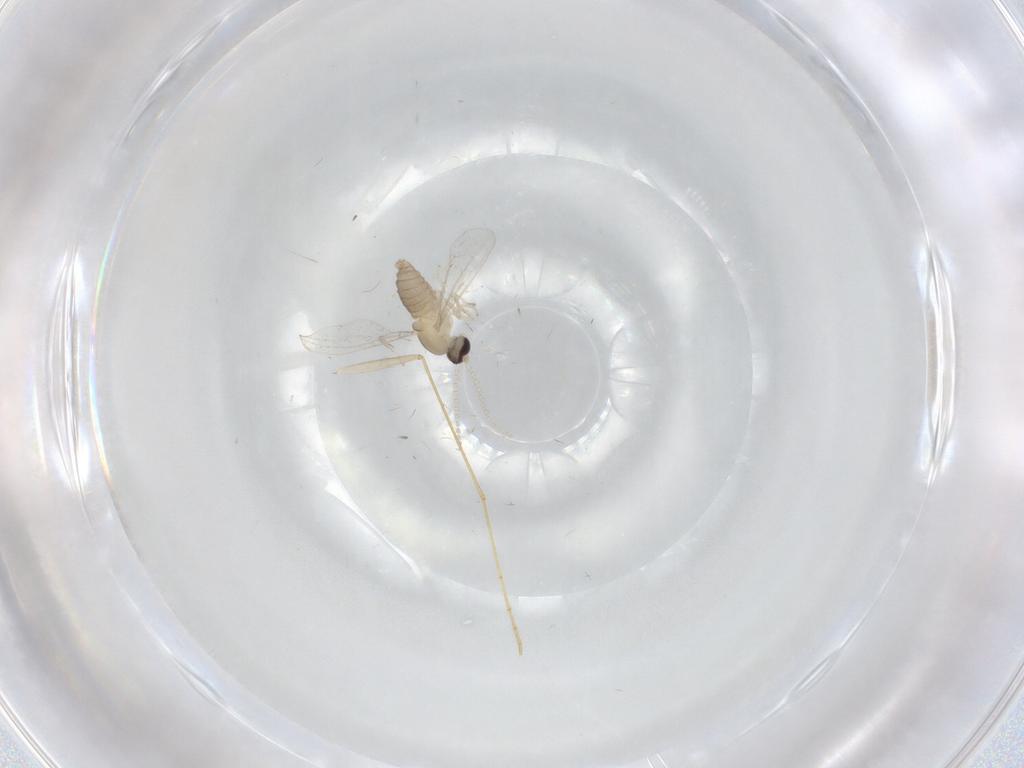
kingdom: Animalia
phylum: Arthropoda
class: Insecta
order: Diptera
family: Cecidomyiidae
